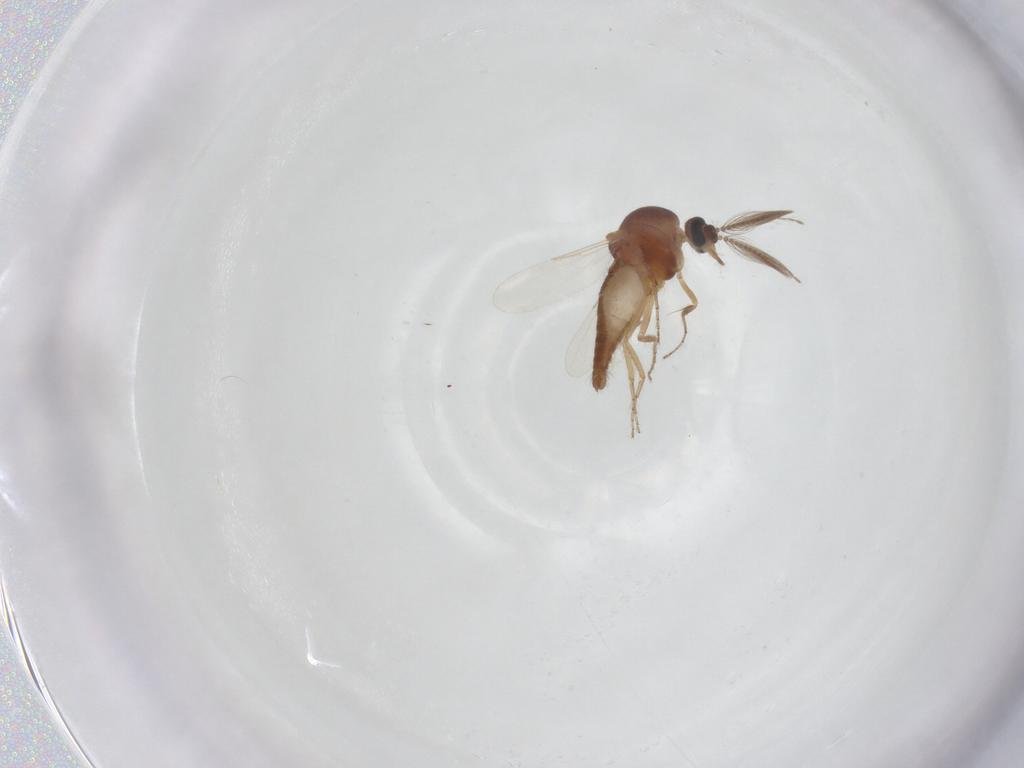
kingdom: Animalia
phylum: Arthropoda
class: Insecta
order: Diptera
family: Ceratopogonidae
